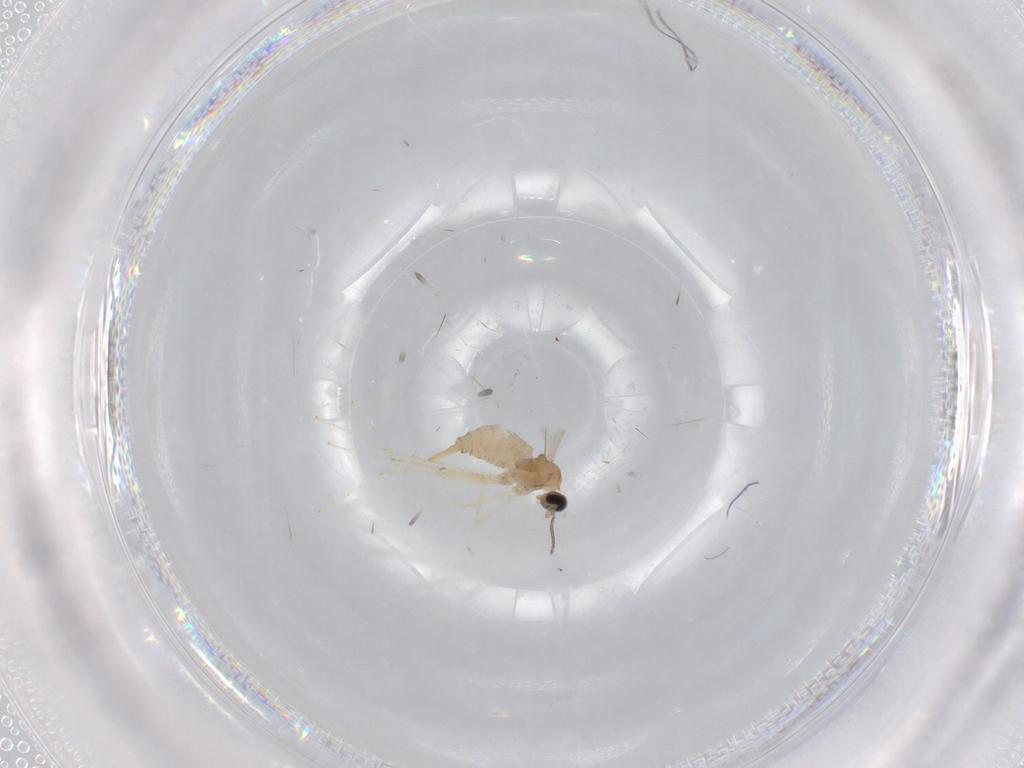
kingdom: Animalia
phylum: Arthropoda
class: Insecta
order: Diptera
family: Cecidomyiidae
